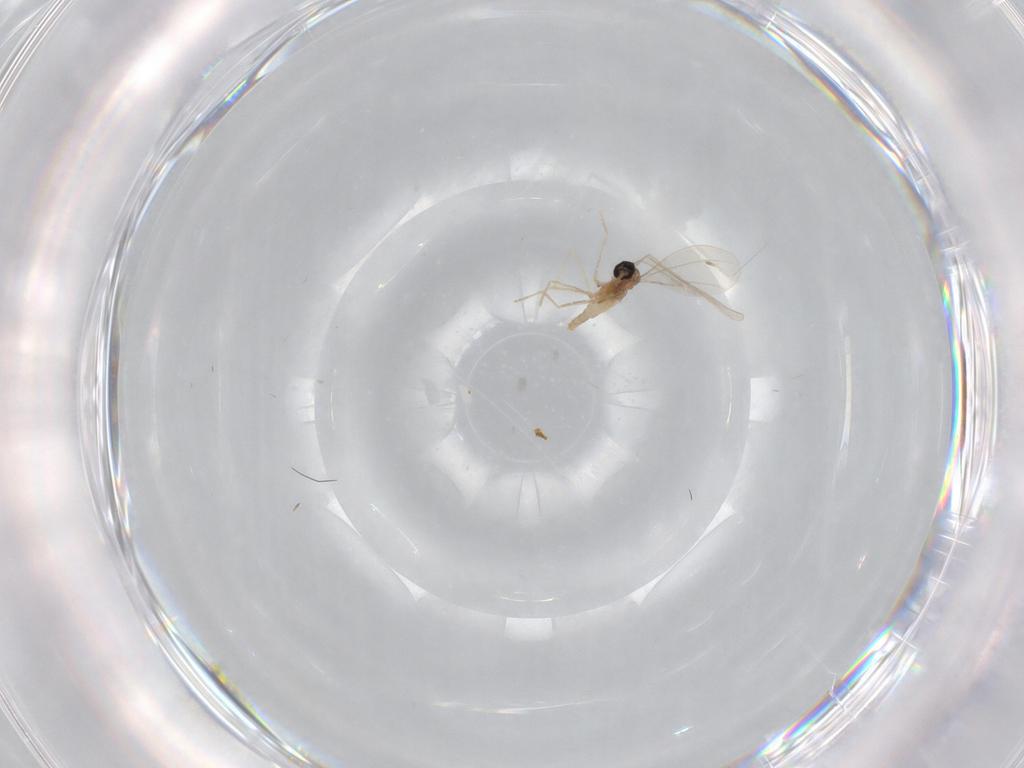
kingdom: Animalia
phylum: Arthropoda
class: Insecta
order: Diptera
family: Cecidomyiidae
